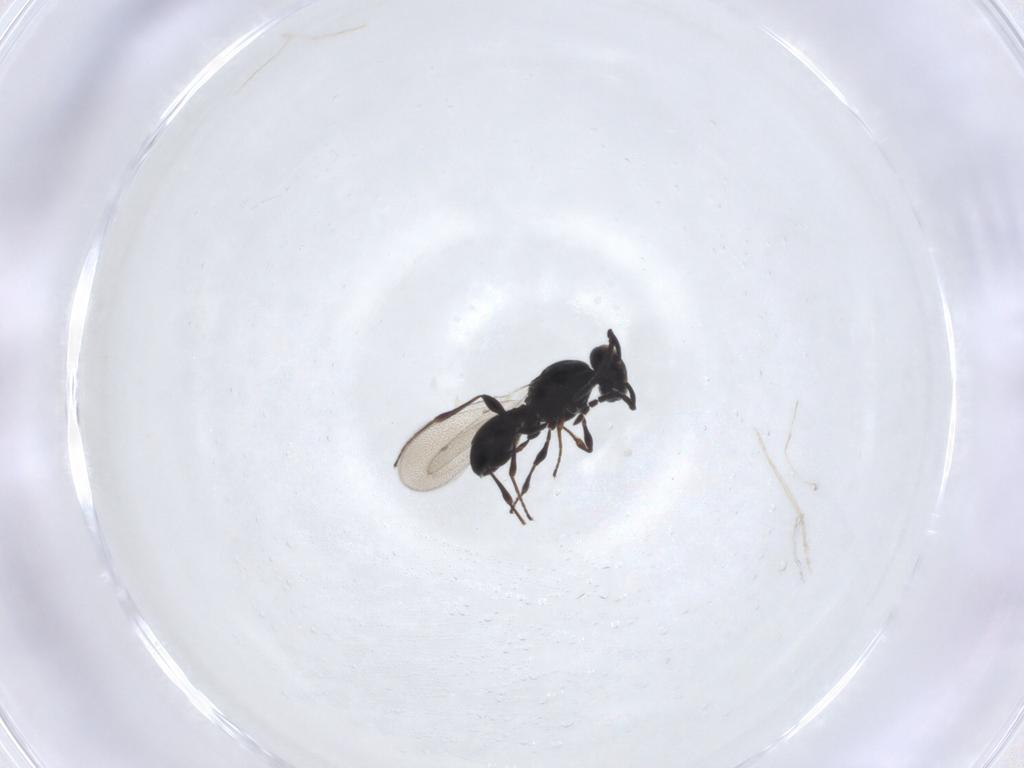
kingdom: Animalia
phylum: Arthropoda
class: Insecta
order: Hymenoptera
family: Platygastridae
